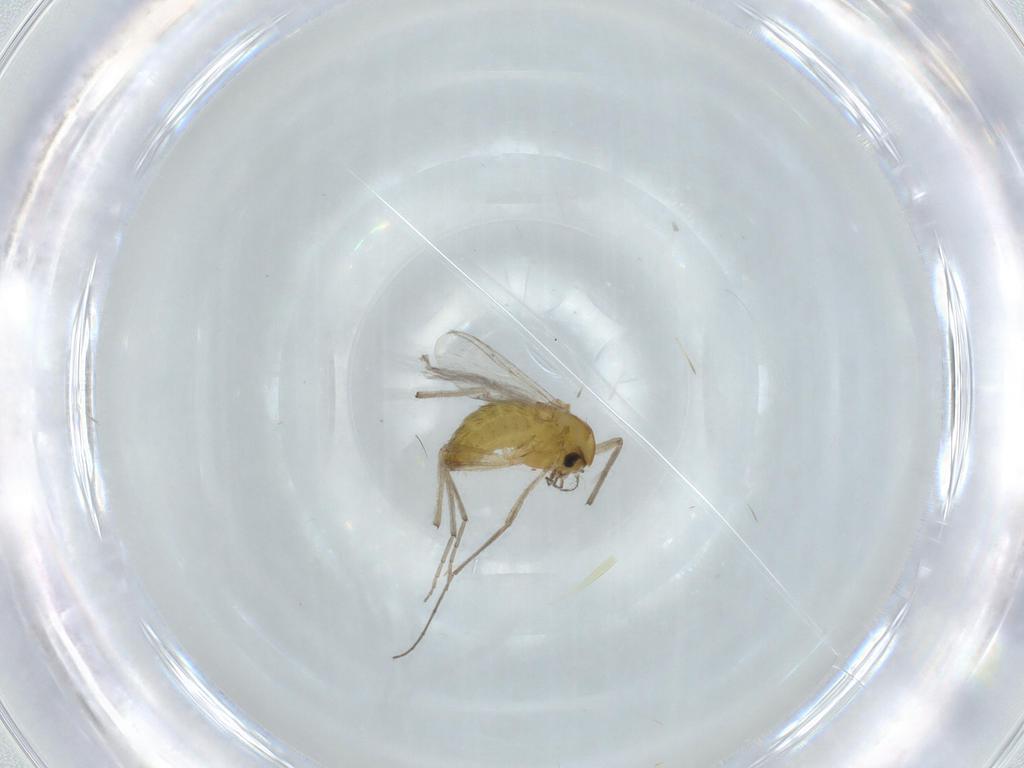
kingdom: Animalia
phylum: Arthropoda
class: Insecta
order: Diptera
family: Chironomidae
